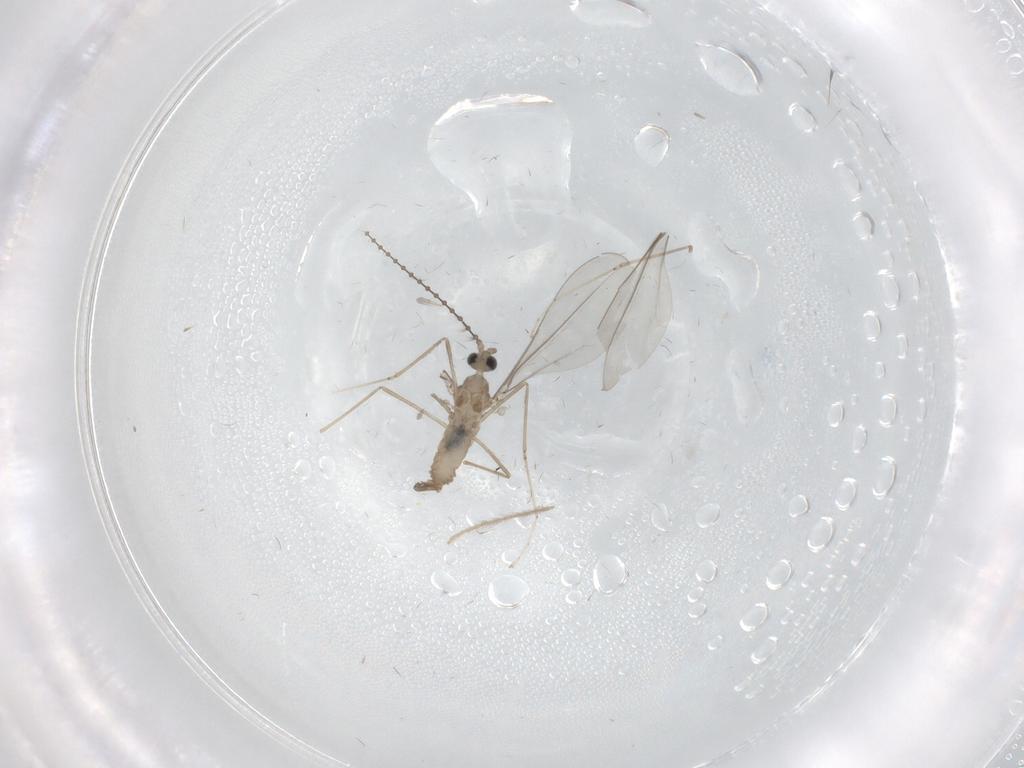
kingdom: Animalia
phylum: Arthropoda
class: Insecta
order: Diptera
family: Cecidomyiidae
